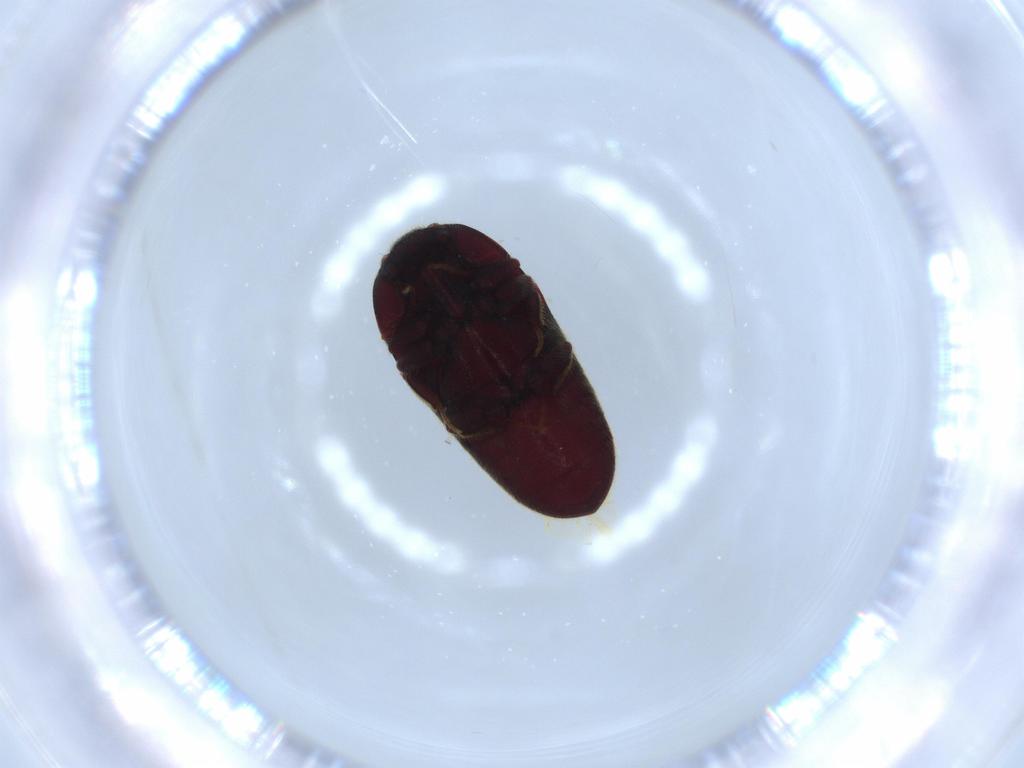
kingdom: Animalia
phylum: Arthropoda
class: Insecta
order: Coleoptera
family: Throscidae
